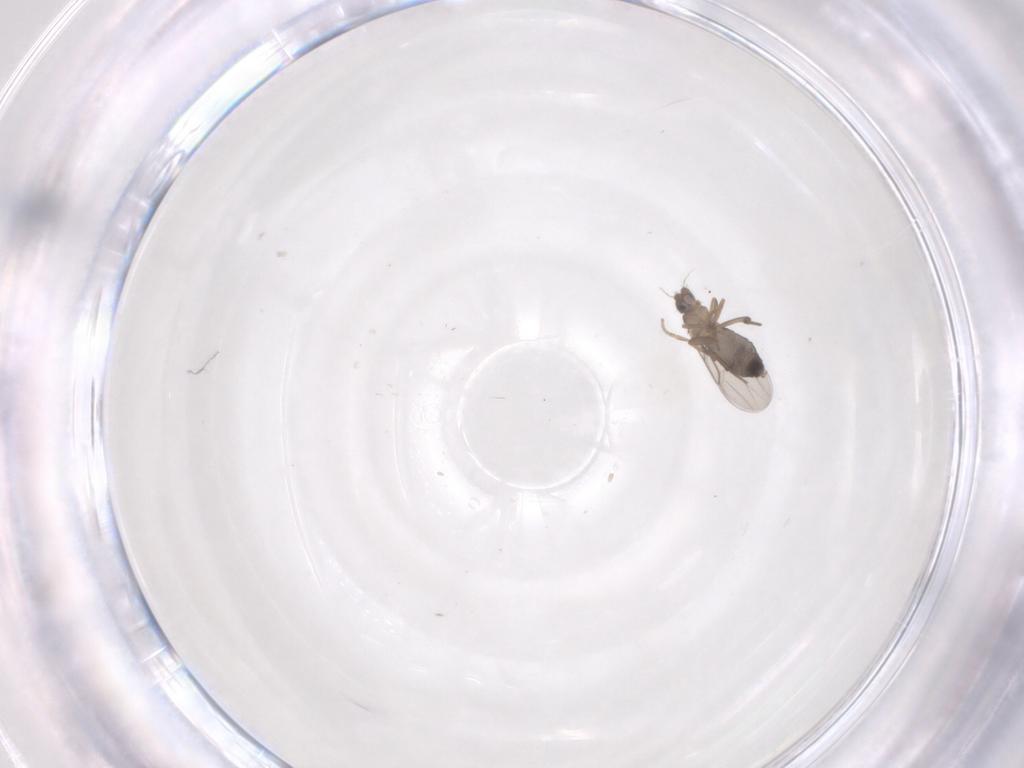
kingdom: Animalia
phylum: Arthropoda
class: Insecta
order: Diptera
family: Phoridae
